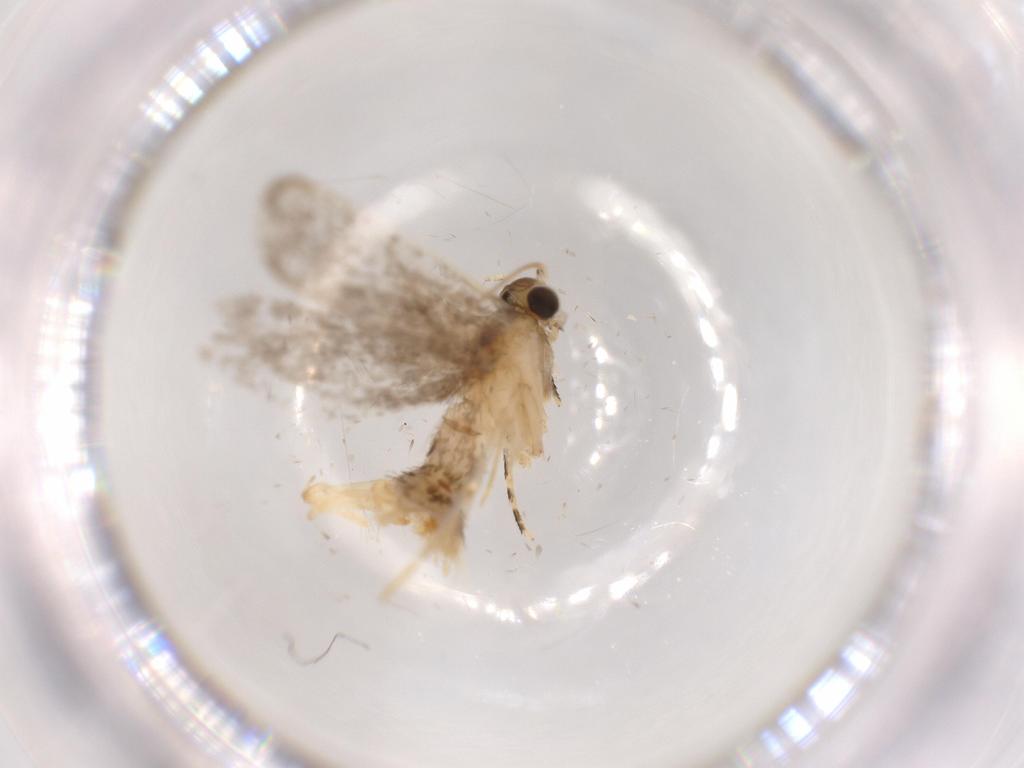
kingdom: Animalia
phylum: Arthropoda
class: Insecta
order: Lepidoptera
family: Tineidae
